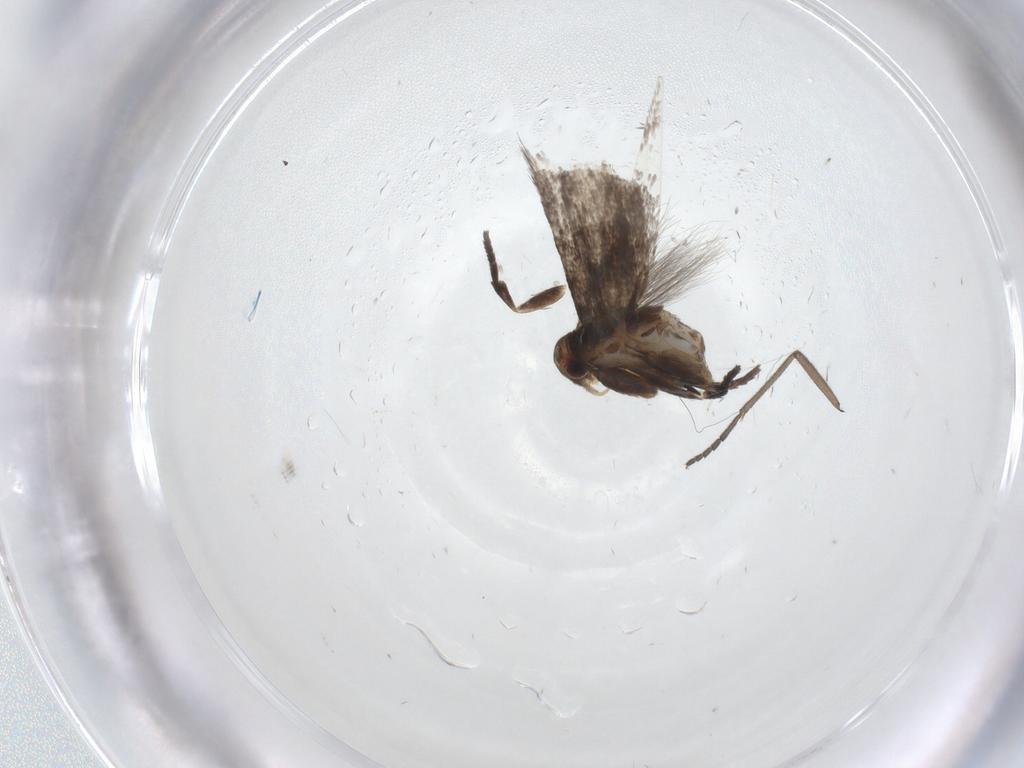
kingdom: Animalia
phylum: Arthropoda
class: Insecta
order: Lepidoptera
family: Elachistidae
